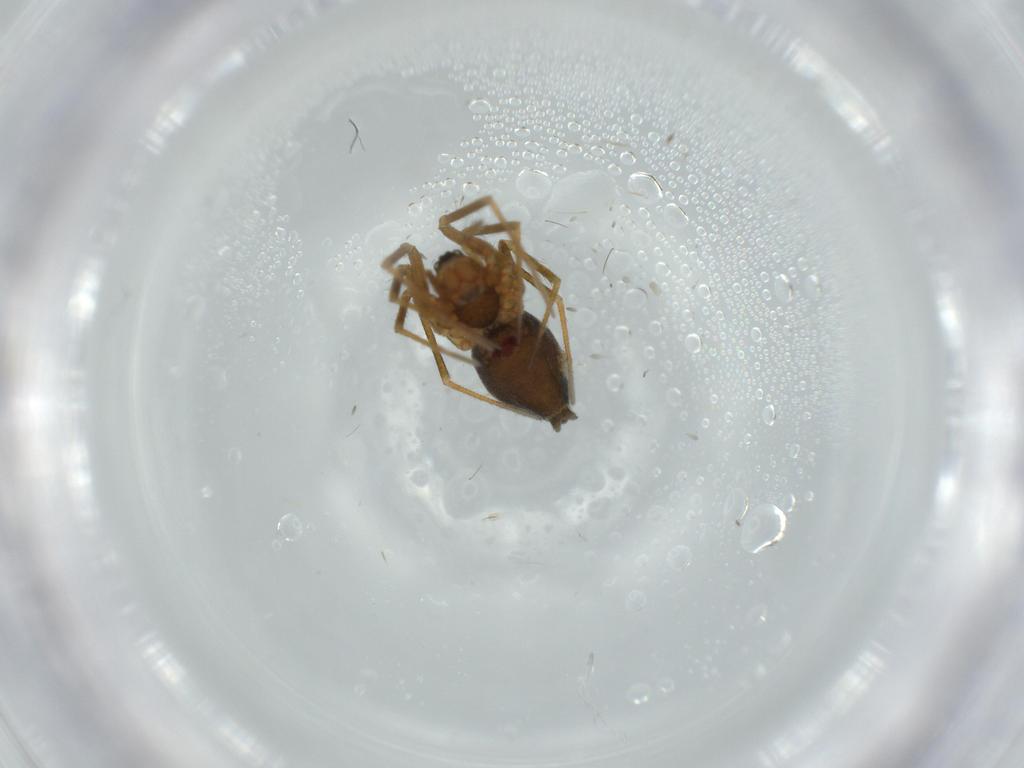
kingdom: Animalia
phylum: Arthropoda
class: Arachnida
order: Araneae
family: Linyphiidae
